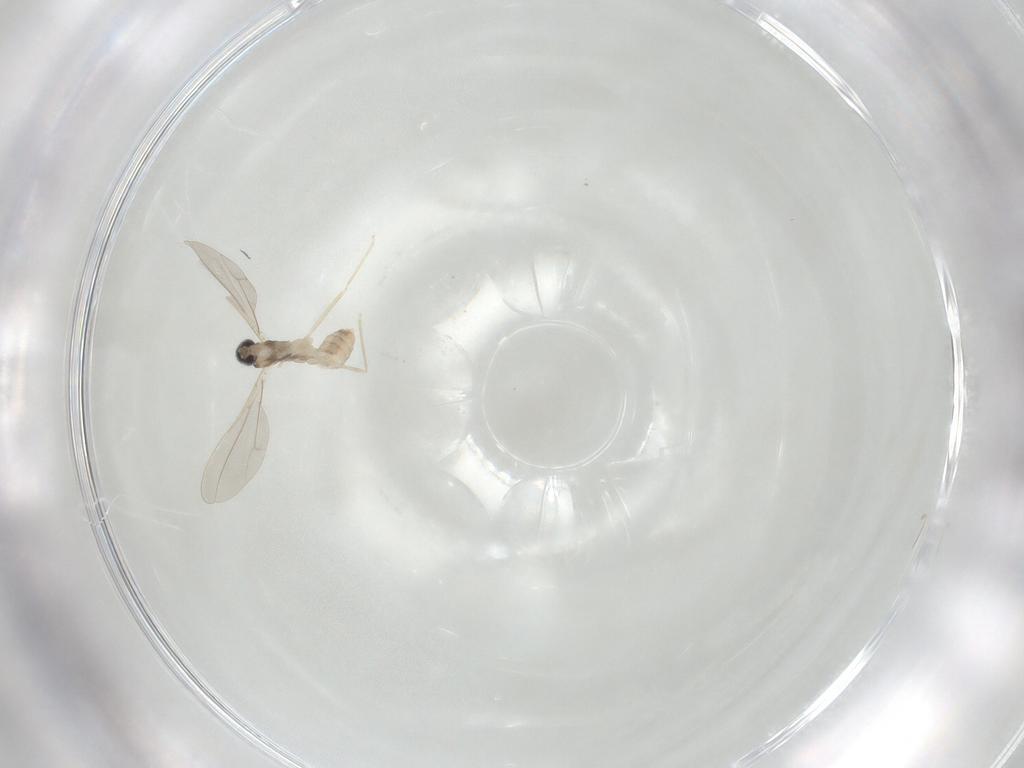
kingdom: Animalia
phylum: Arthropoda
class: Insecta
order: Diptera
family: Cecidomyiidae
